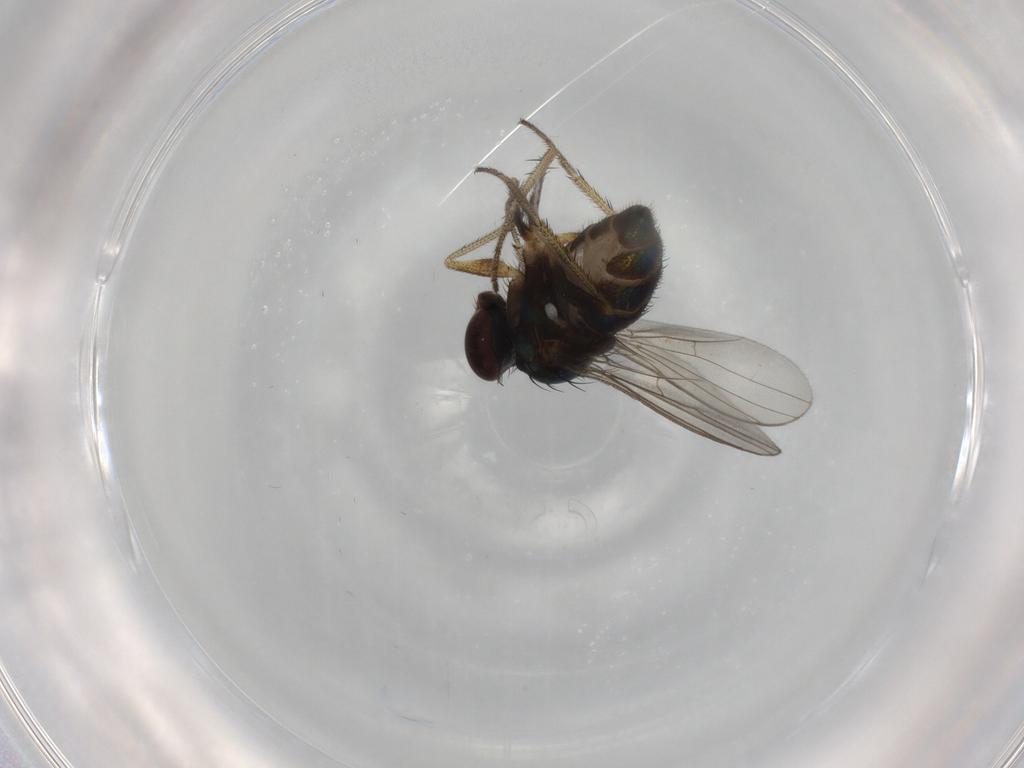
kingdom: Animalia
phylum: Arthropoda
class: Insecta
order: Diptera
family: Dolichopodidae
